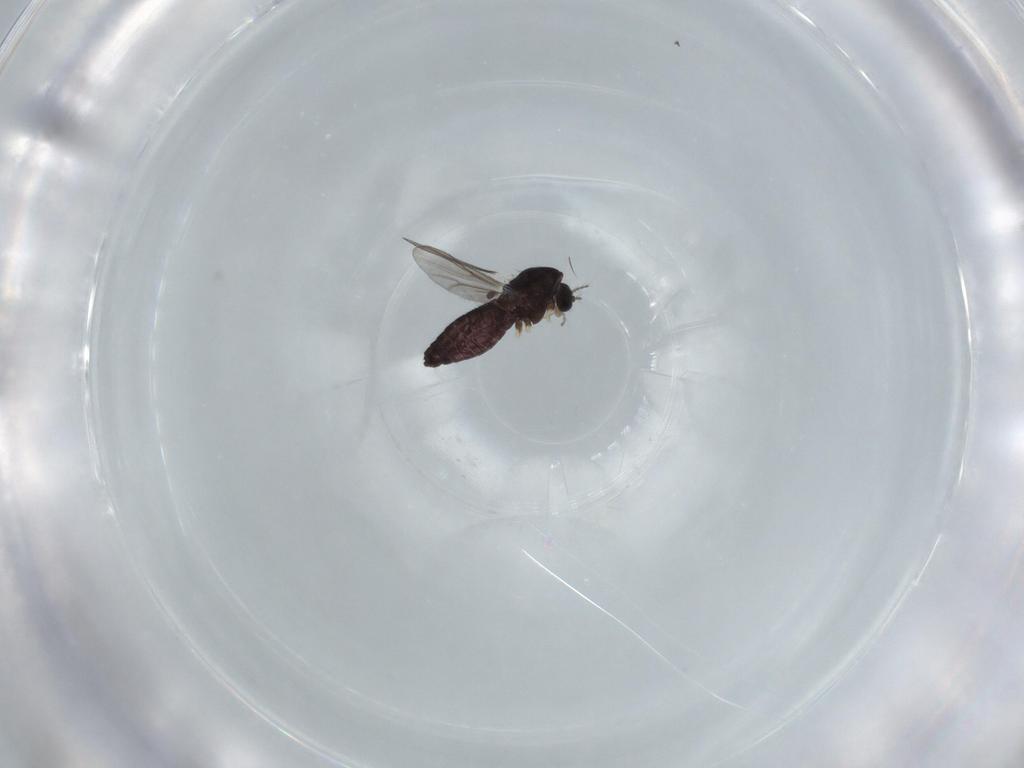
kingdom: Animalia
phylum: Arthropoda
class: Insecta
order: Diptera
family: Chironomidae
